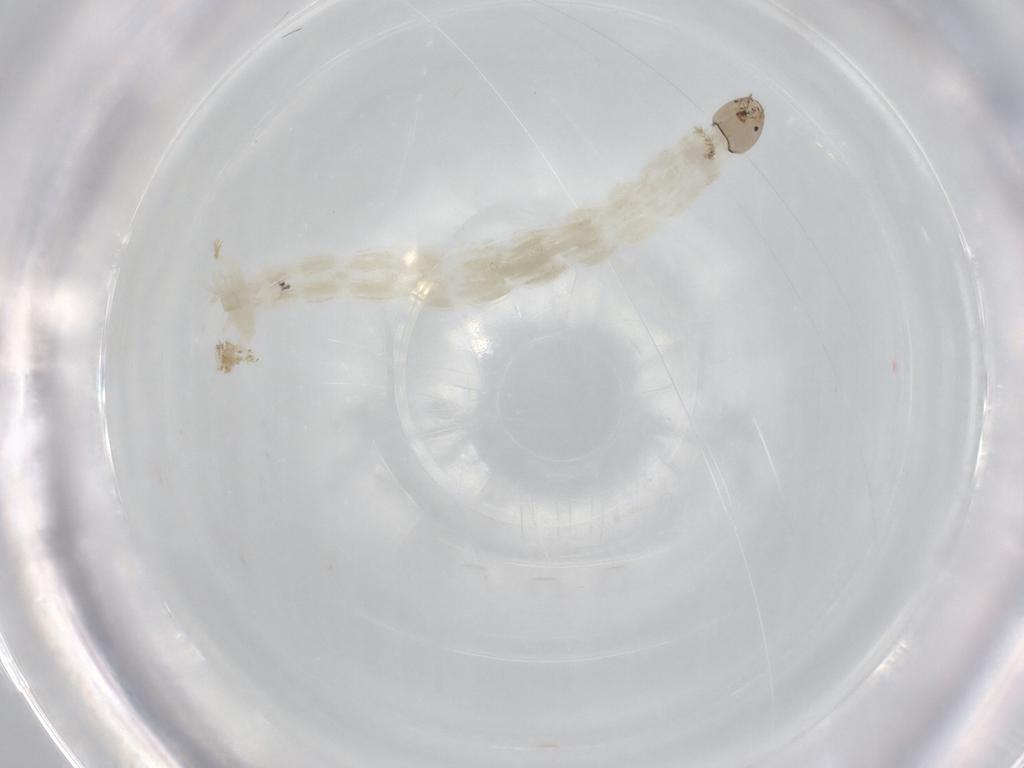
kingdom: Animalia
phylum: Arthropoda
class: Insecta
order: Diptera
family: Chironomidae
